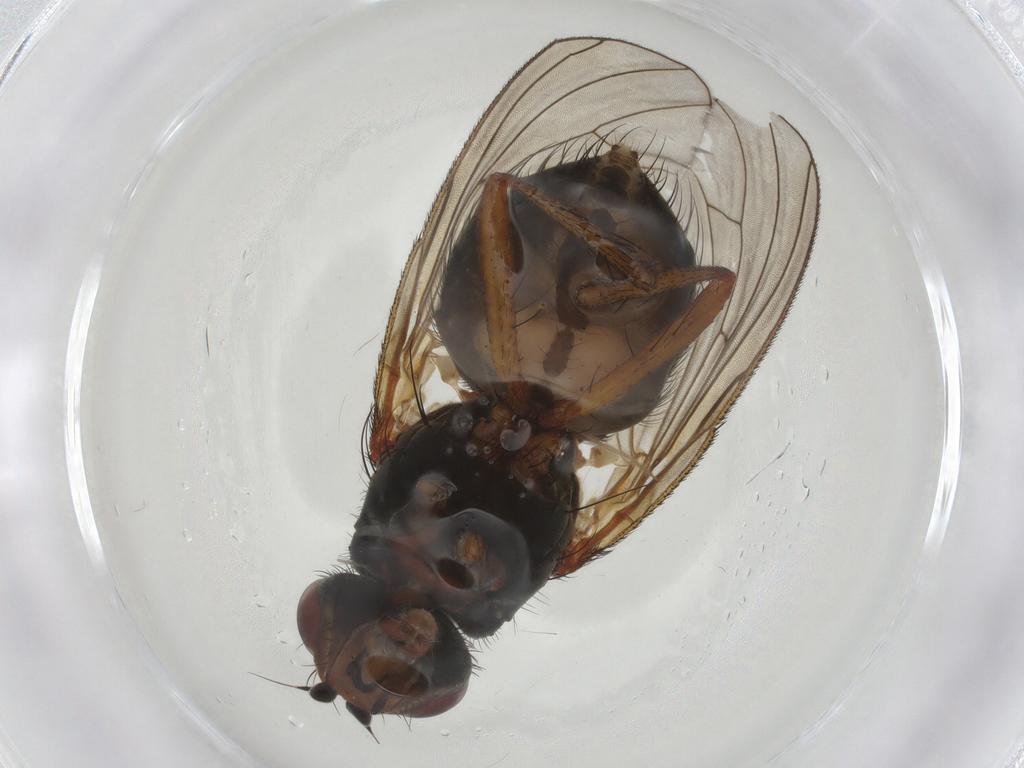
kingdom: Animalia
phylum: Arthropoda
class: Insecta
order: Diptera
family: Anthomyiidae
